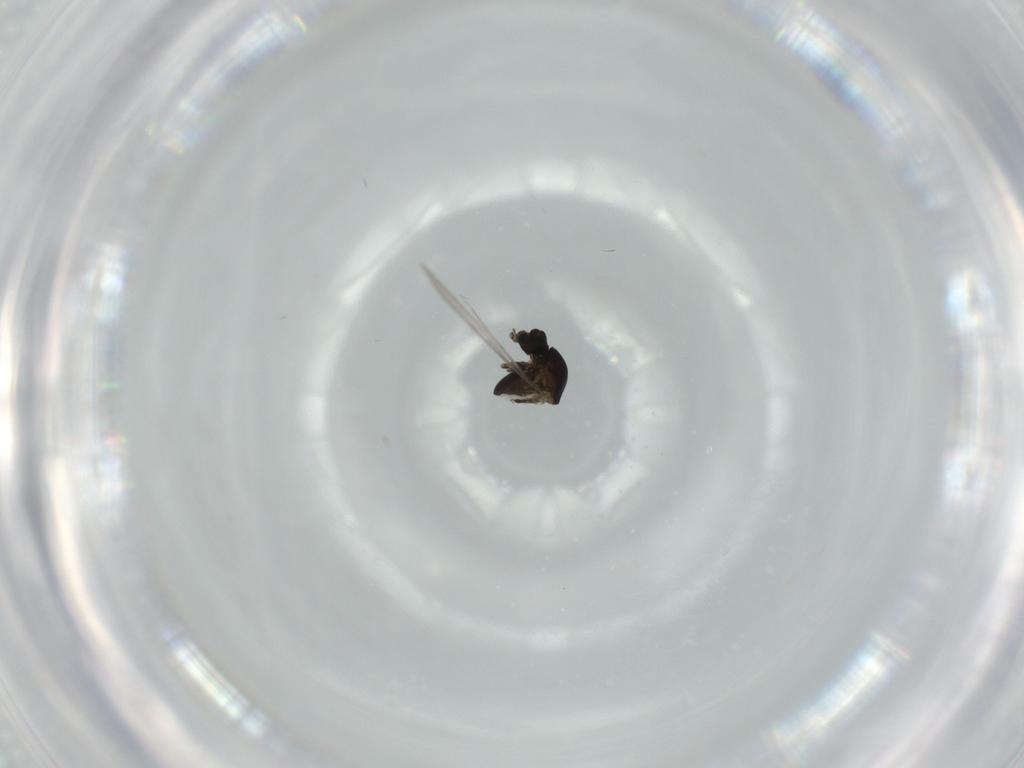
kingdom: Animalia
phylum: Arthropoda
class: Insecta
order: Diptera
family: Chironomidae
